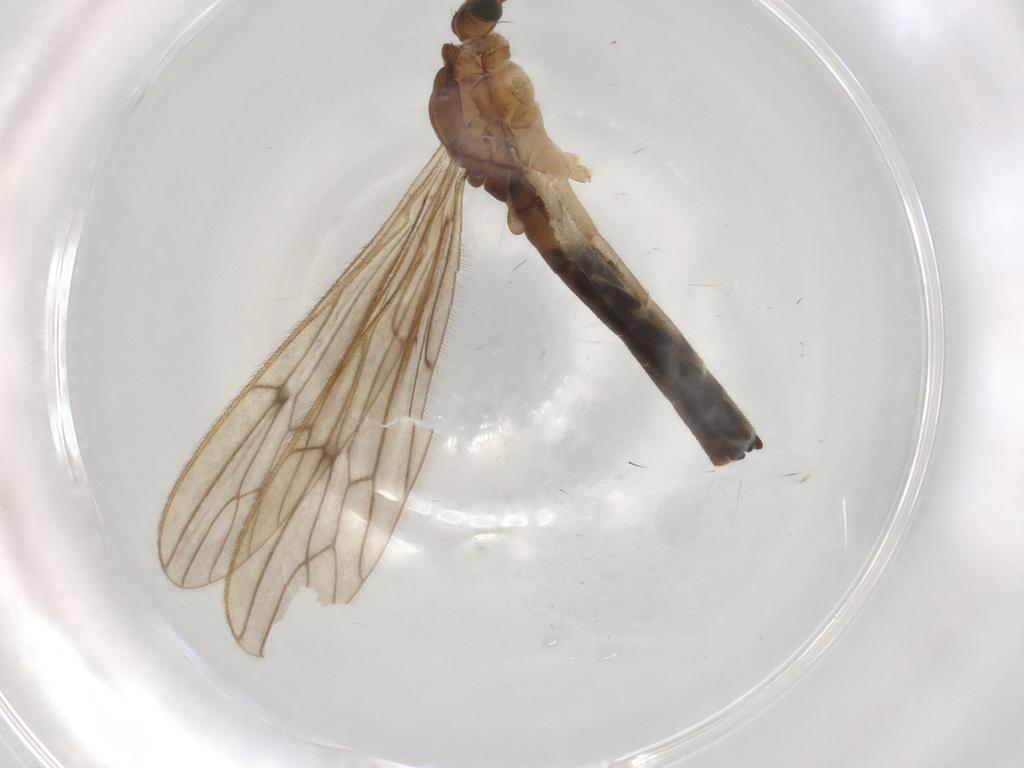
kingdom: Animalia
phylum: Arthropoda
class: Insecta
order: Diptera
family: Limoniidae
